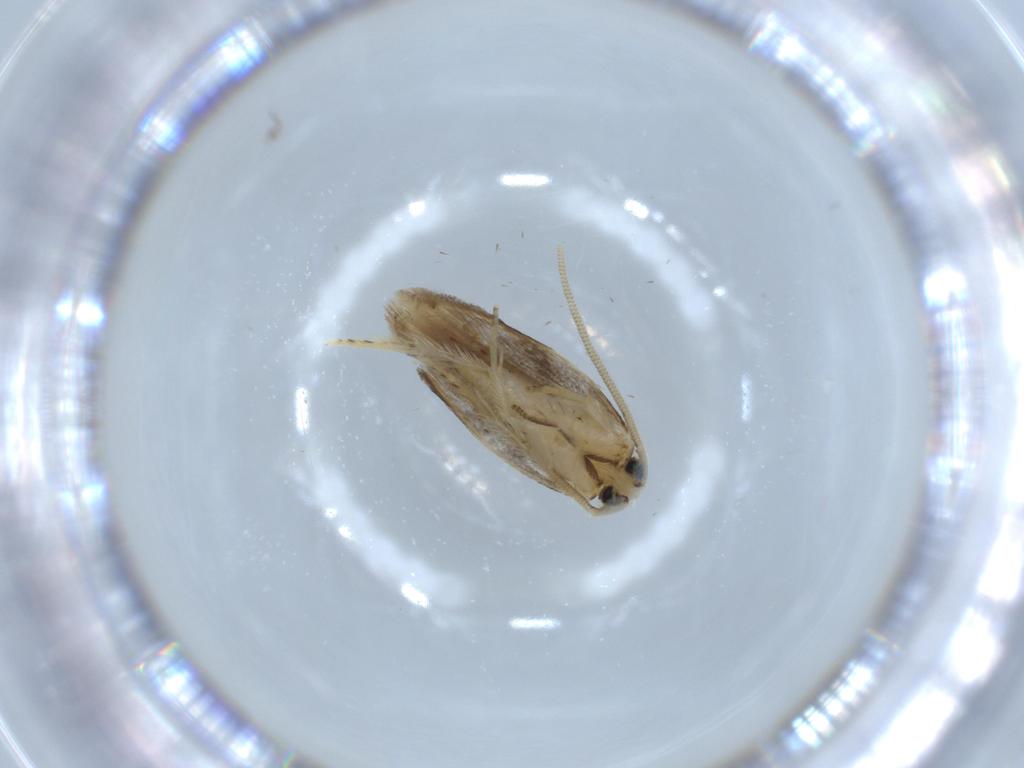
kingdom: Animalia
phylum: Arthropoda
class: Insecta
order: Lepidoptera
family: Opostegidae
